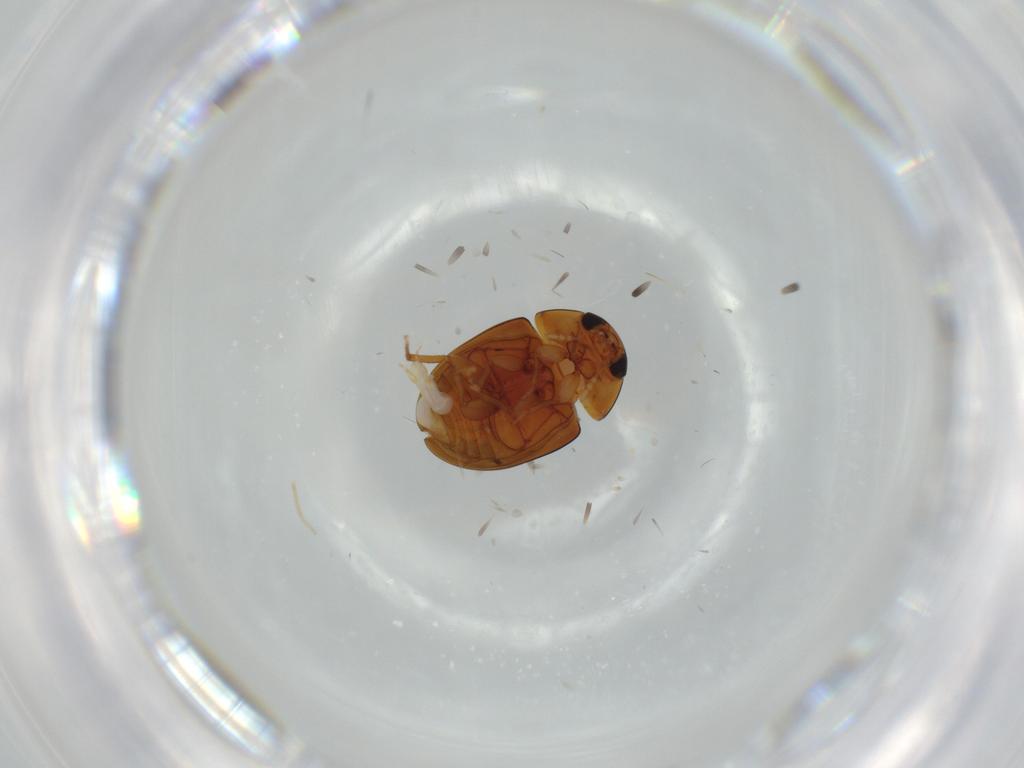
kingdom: Animalia
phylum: Arthropoda
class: Insecta
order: Coleoptera
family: Phalacridae
